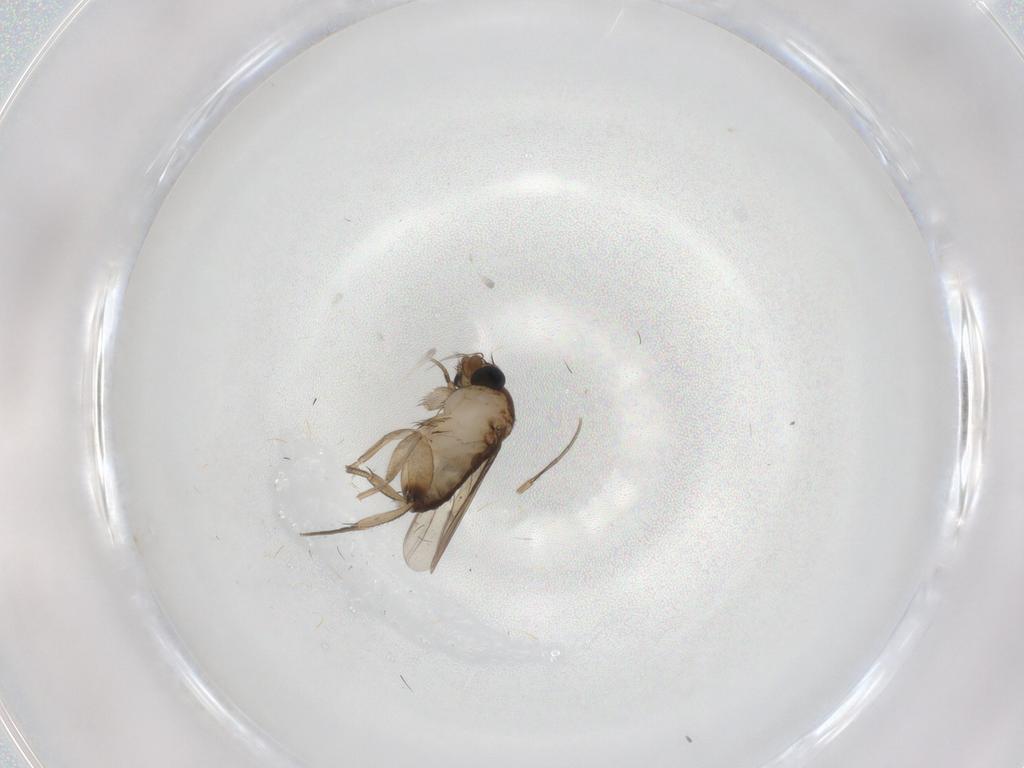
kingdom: Animalia
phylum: Arthropoda
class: Insecta
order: Diptera
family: Phoridae
